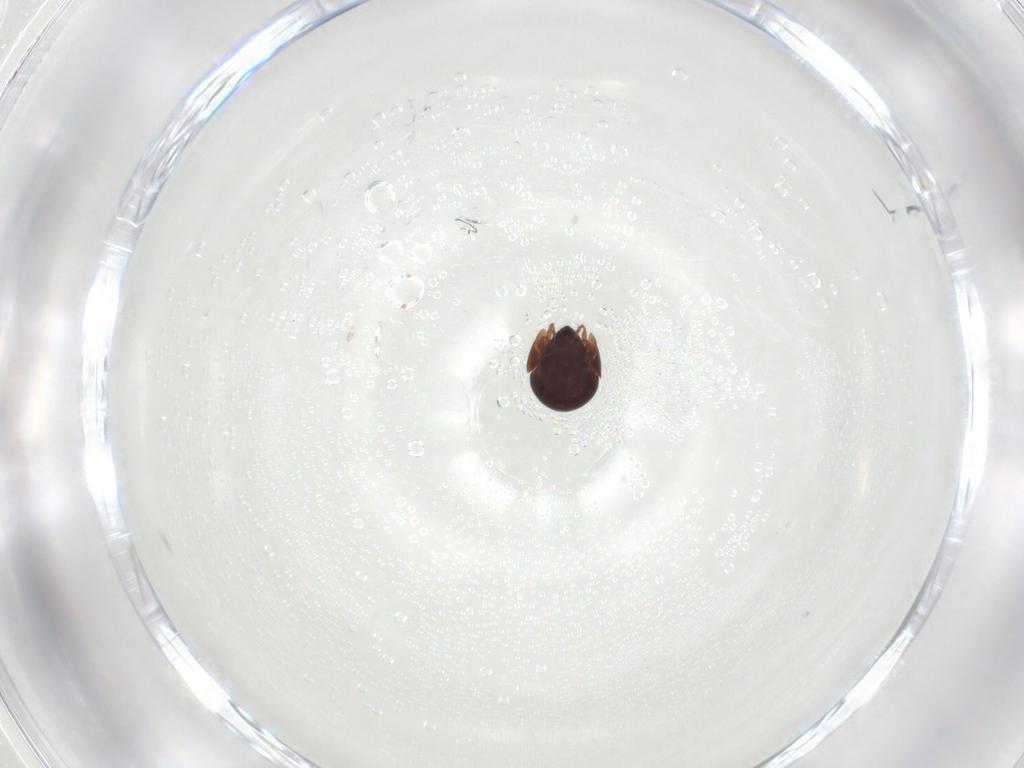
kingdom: Animalia
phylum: Arthropoda
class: Arachnida
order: Sarcoptiformes
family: Galumnidae
